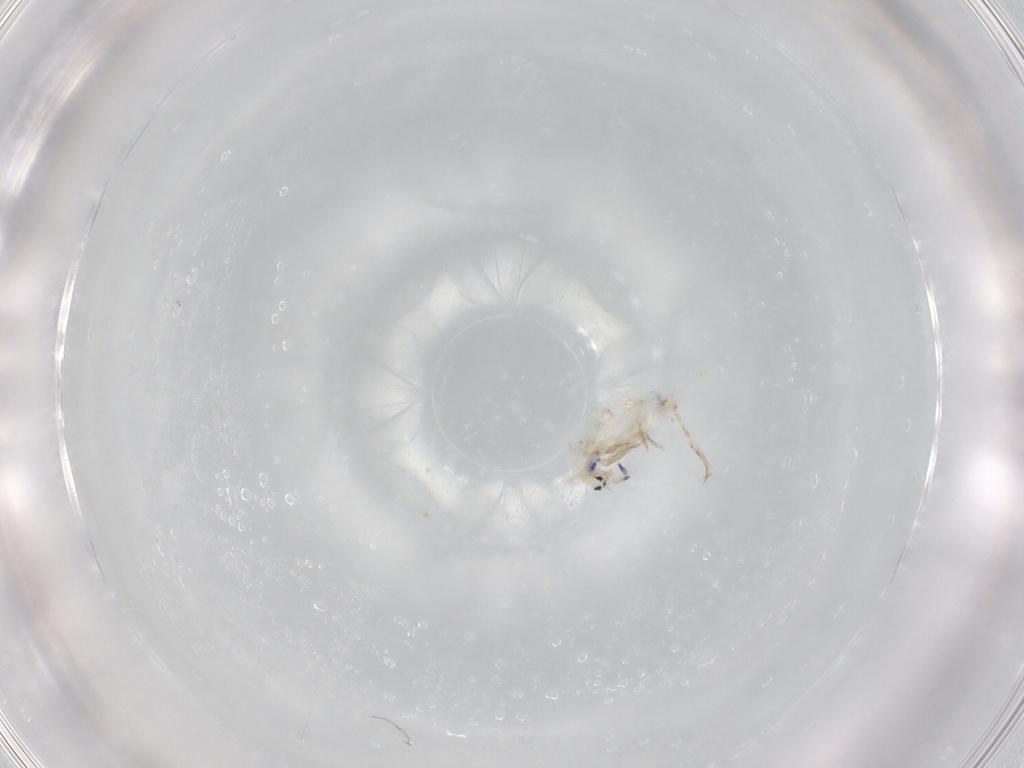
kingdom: Animalia
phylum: Arthropoda
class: Collembola
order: Entomobryomorpha
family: Entomobryidae
